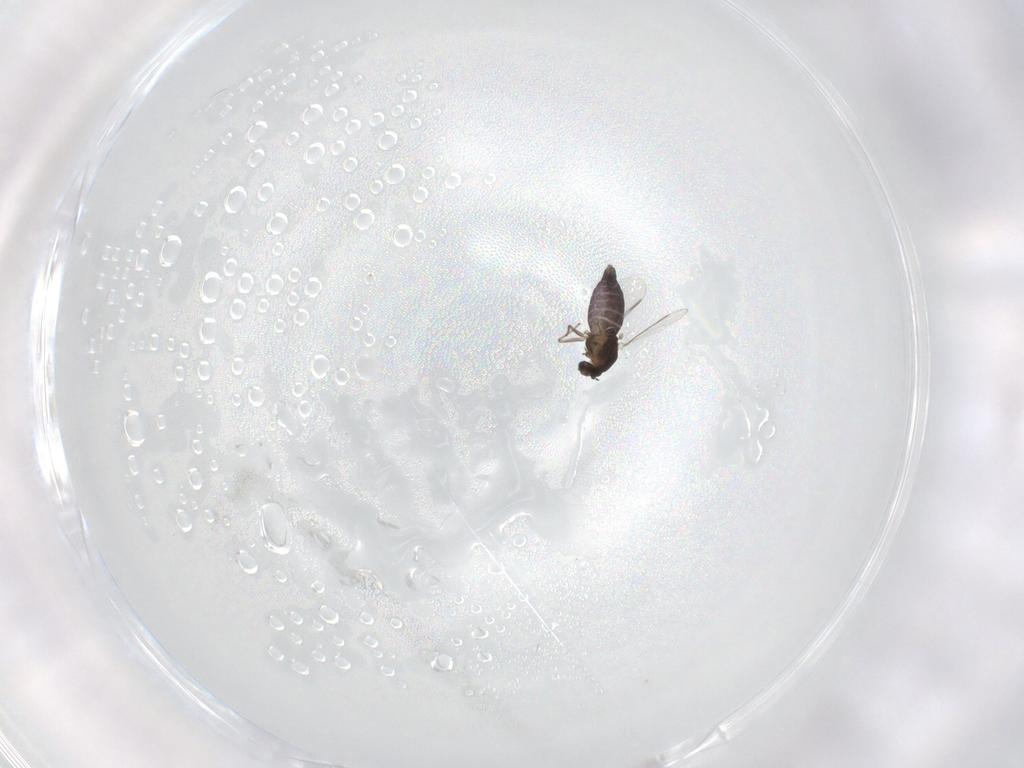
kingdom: Animalia
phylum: Arthropoda
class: Insecta
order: Diptera
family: Chironomidae
